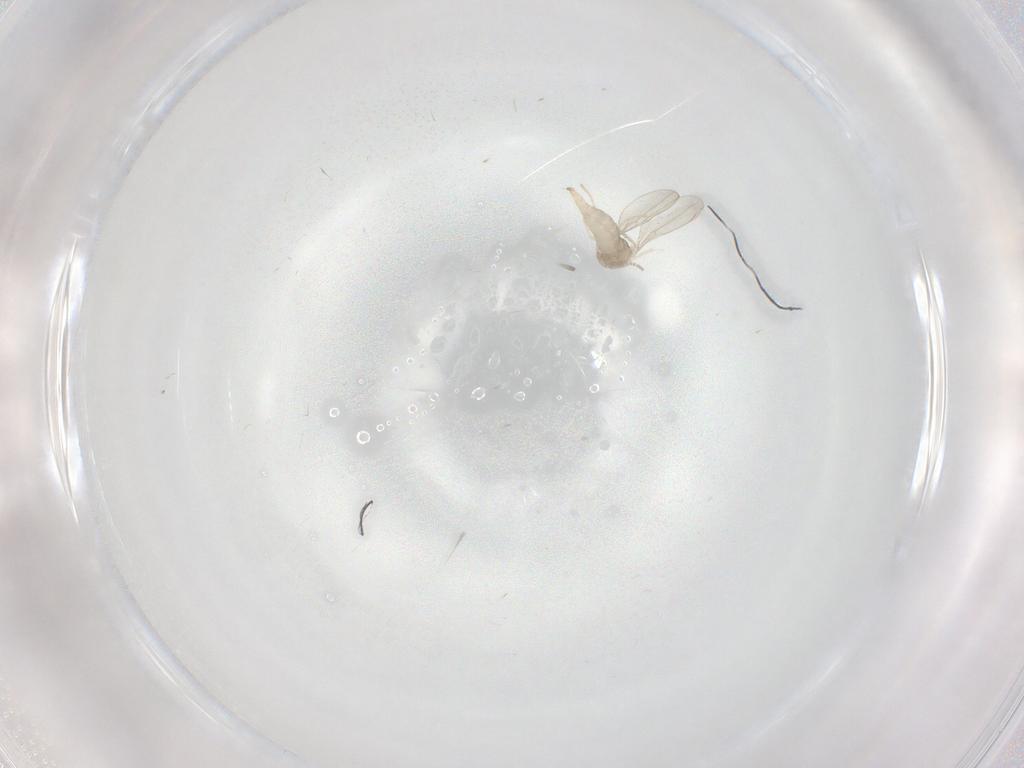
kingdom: Animalia
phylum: Arthropoda
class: Insecta
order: Diptera
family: Cecidomyiidae
